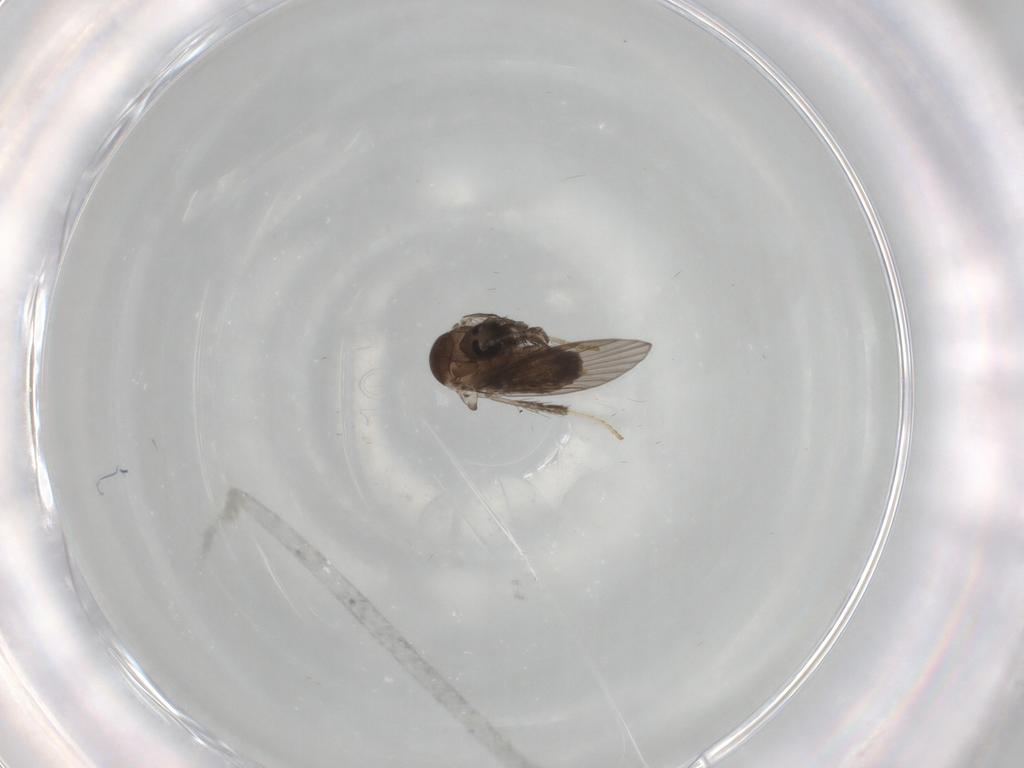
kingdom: Animalia
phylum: Arthropoda
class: Insecta
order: Diptera
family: Psychodidae
